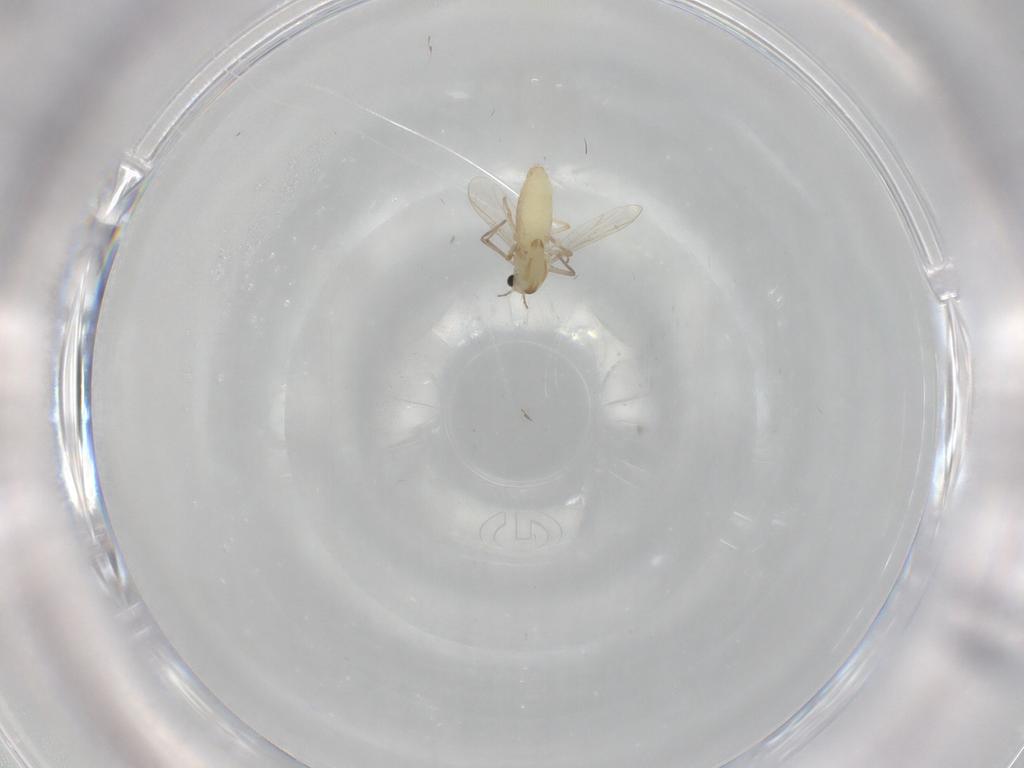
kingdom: Animalia
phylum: Arthropoda
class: Insecta
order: Diptera
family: Chironomidae
